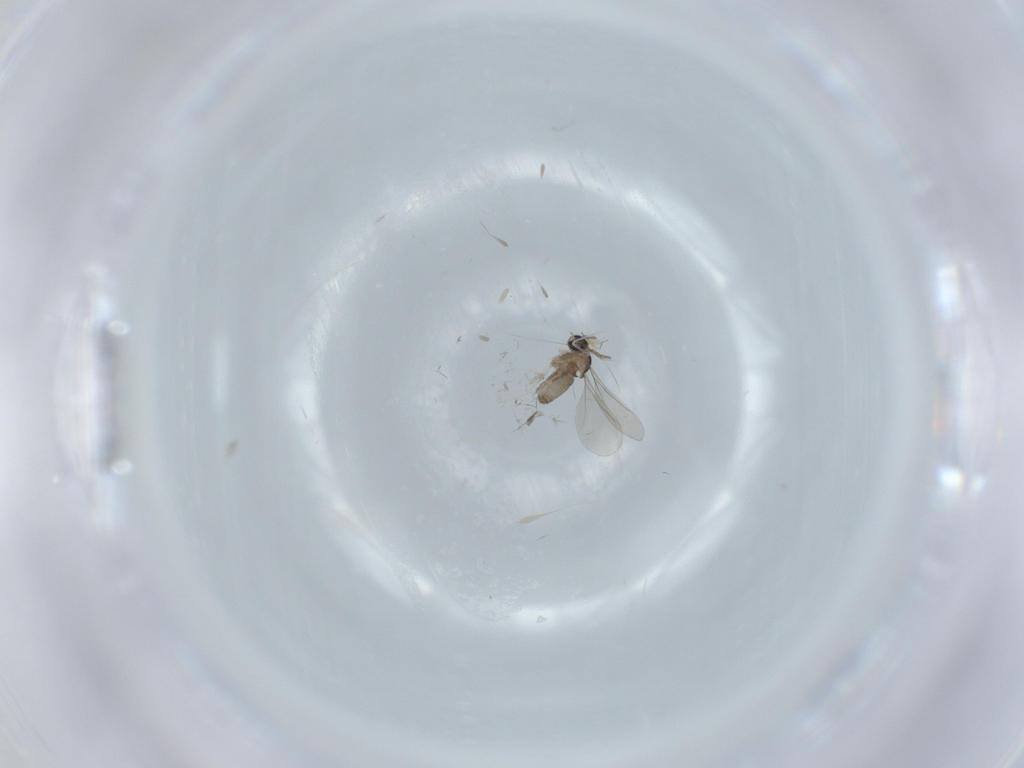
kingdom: Animalia
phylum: Arthropoda
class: Insecta
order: Diptera
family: Cecidomyiidae
